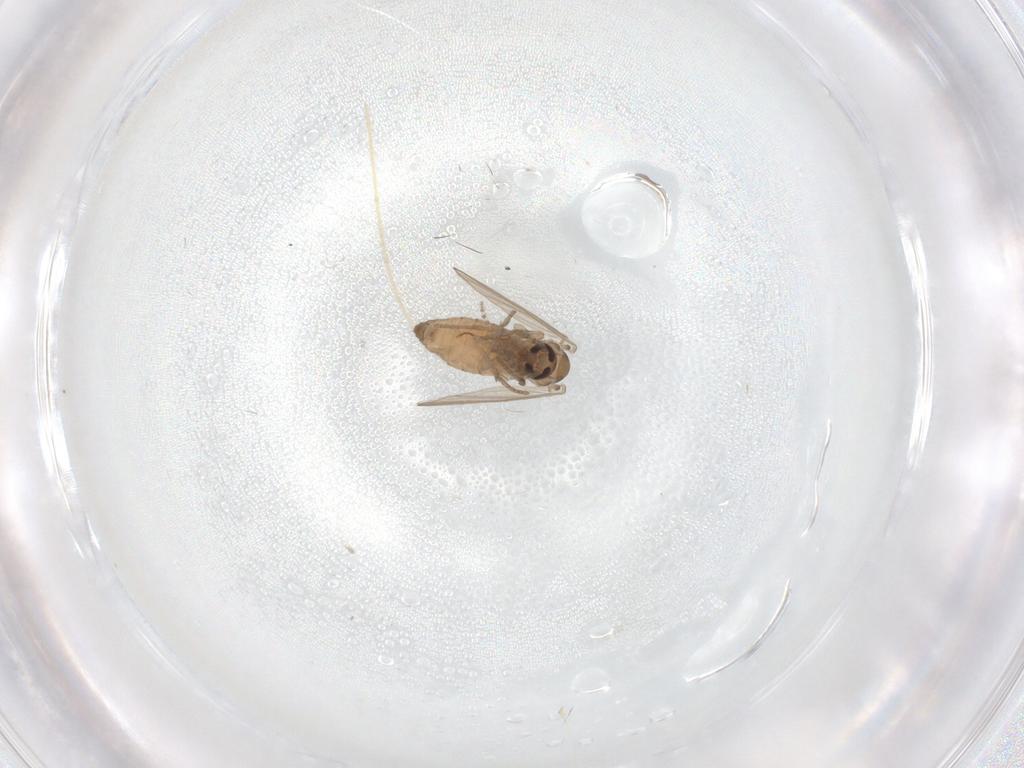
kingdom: Animalia
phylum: Arthropoda
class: Insecta
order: Diptera
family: Psychodidae
